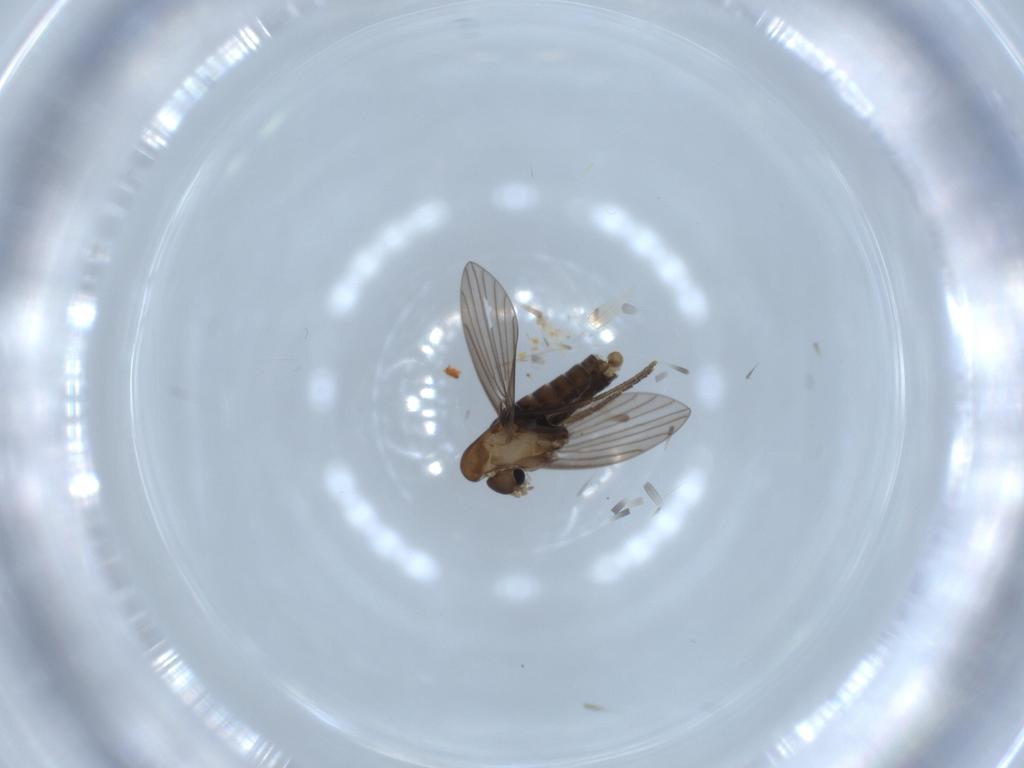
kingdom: Animalia
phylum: Arthropoda
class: Insecta
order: Diptera
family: Psychodidae
